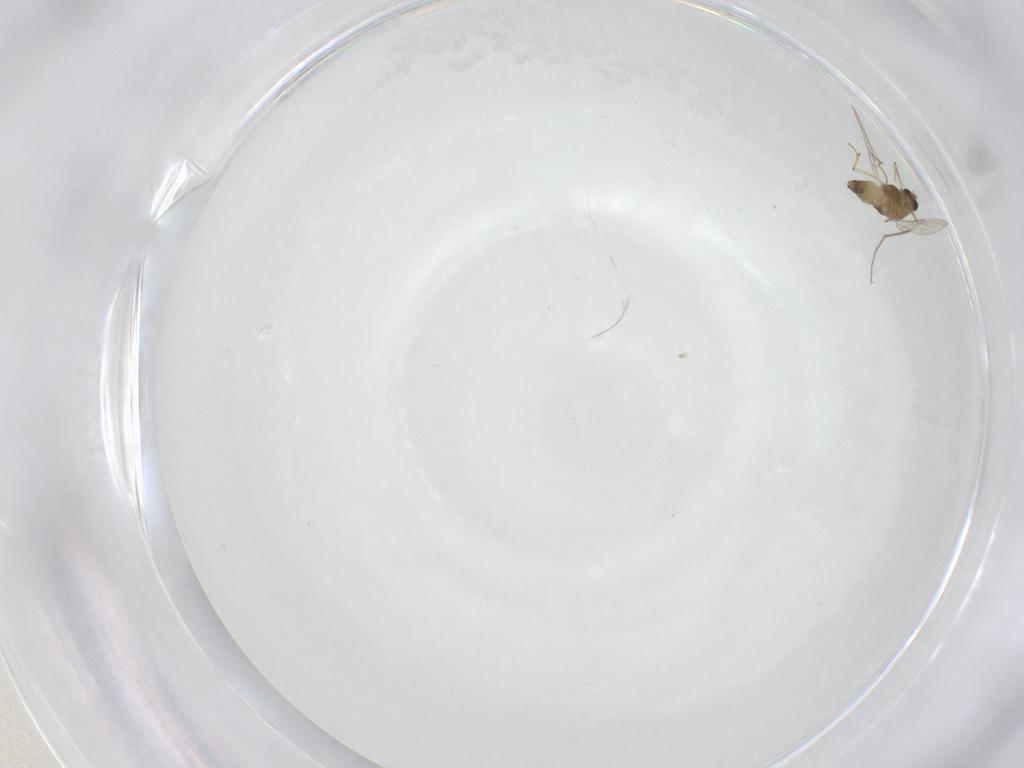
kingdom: Animalia
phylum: Arthropoda
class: Insecta
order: Diptera
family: Chironomidae
